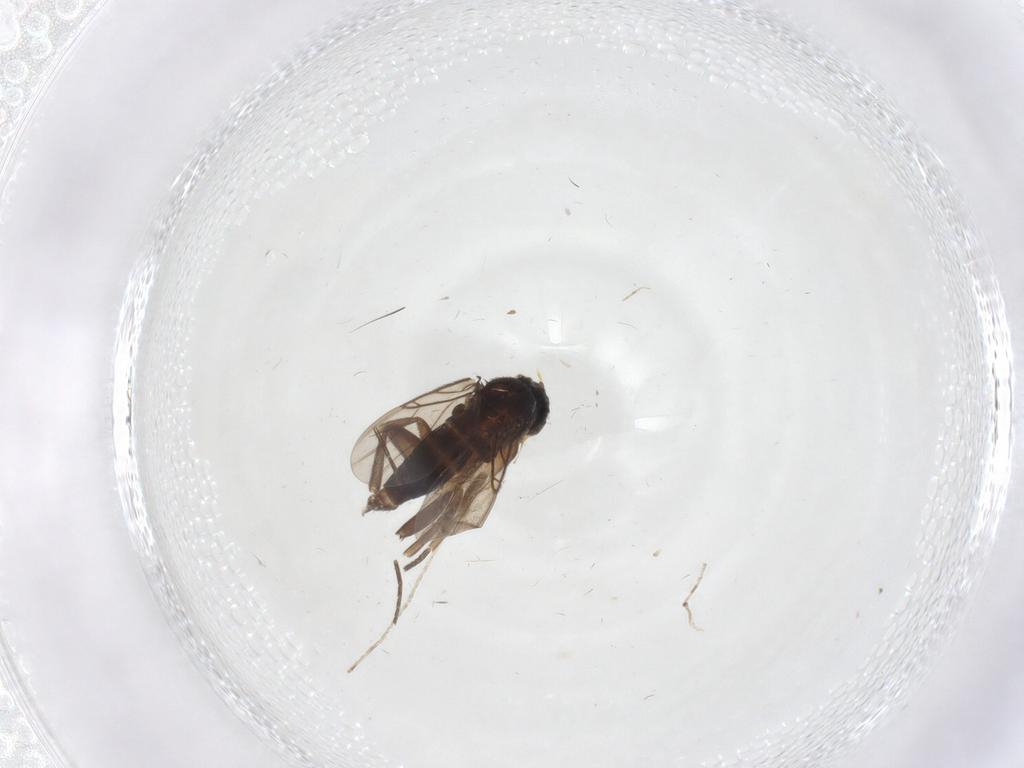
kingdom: Animalia
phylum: Arthropoda
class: Insecta
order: Diptera
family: Phoridae
